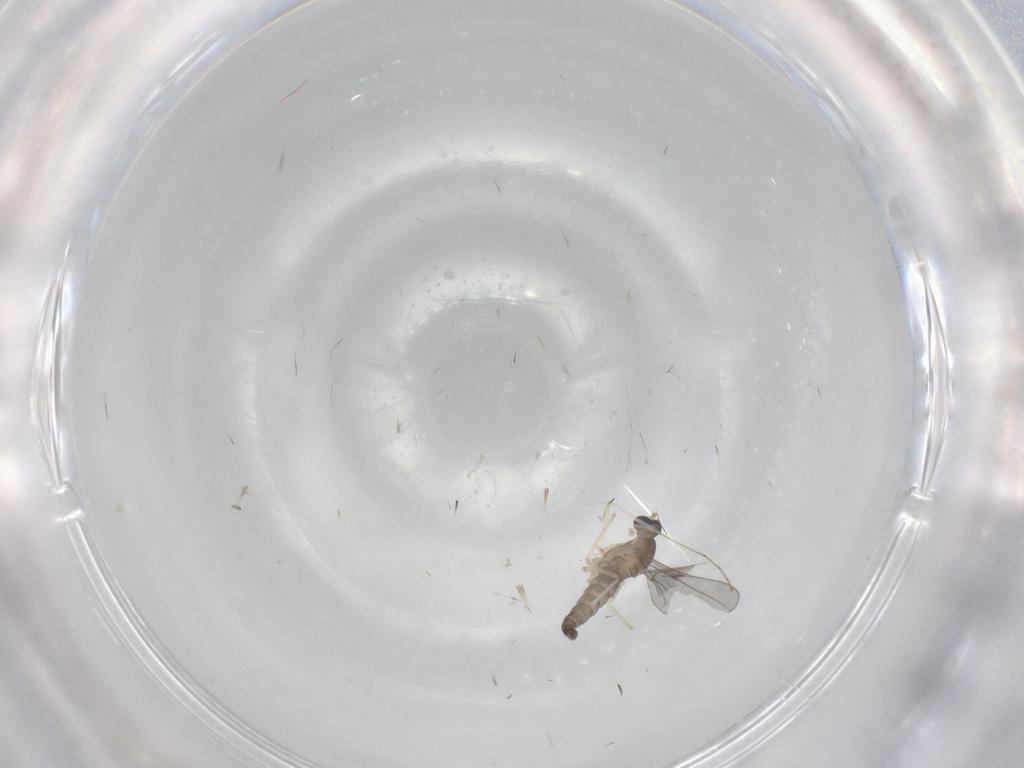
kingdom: Animalia
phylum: Arthropoda
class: Insecta
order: Diptera
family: Cecidomyiidae
